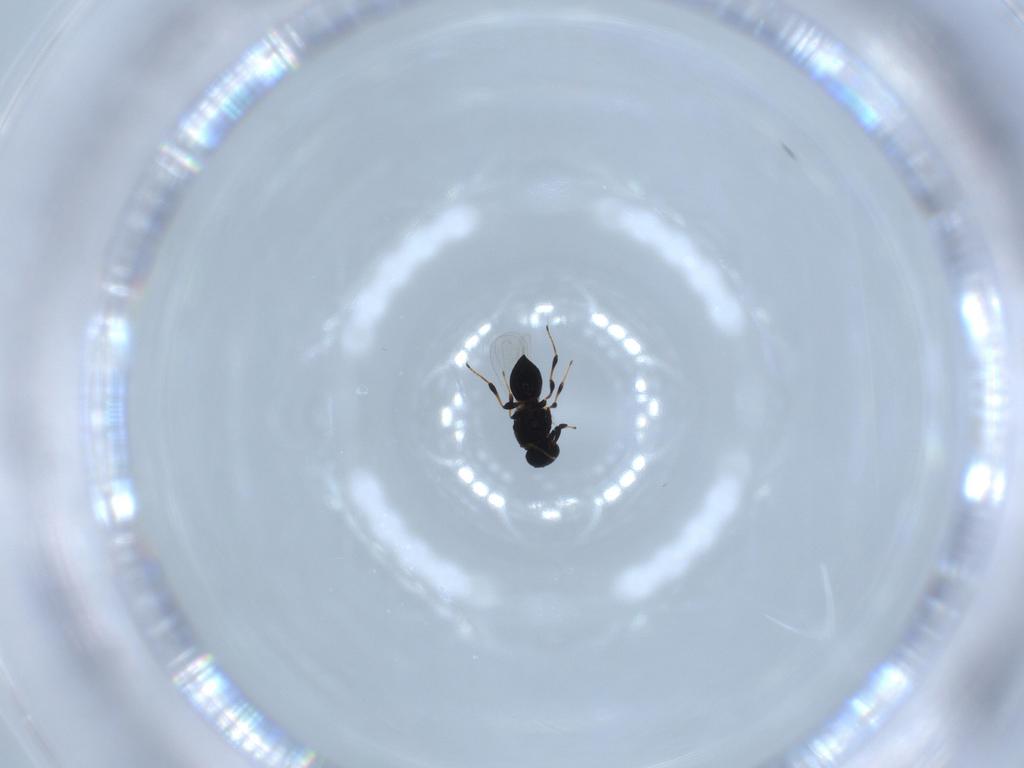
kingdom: Animalia
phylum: Arthropoda
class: Insecta
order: Hymenoptera
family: Platygastridae
